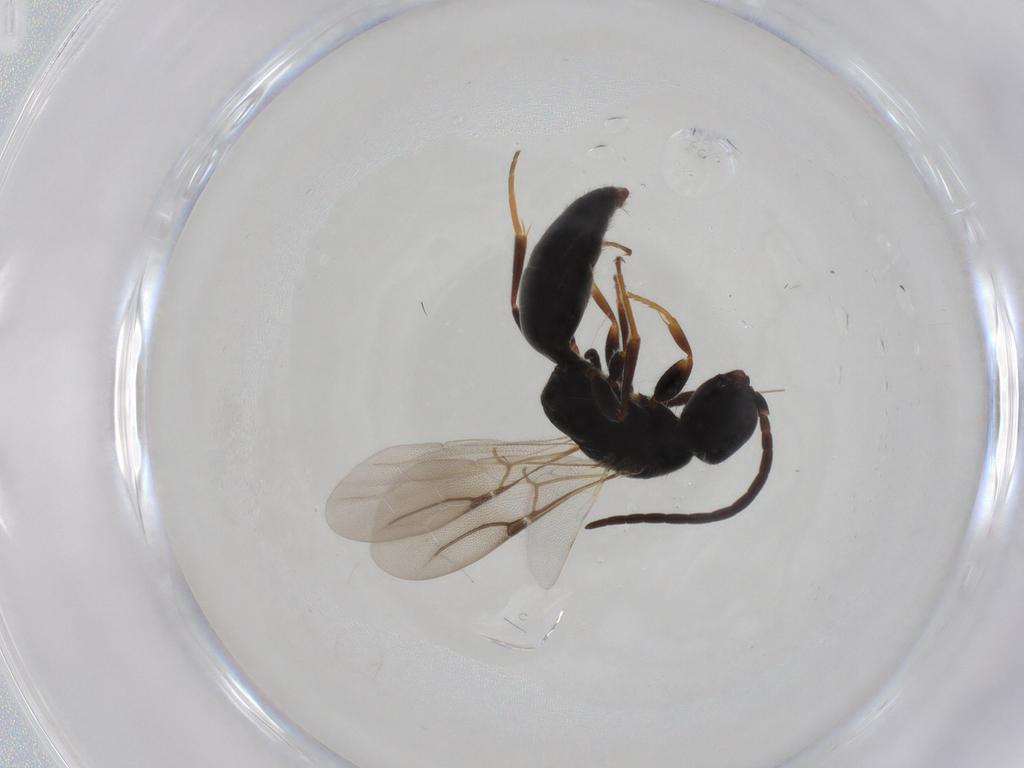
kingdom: Animalia
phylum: Arthropoda
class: Insecta
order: Hymenoptera
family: Bethylidae
